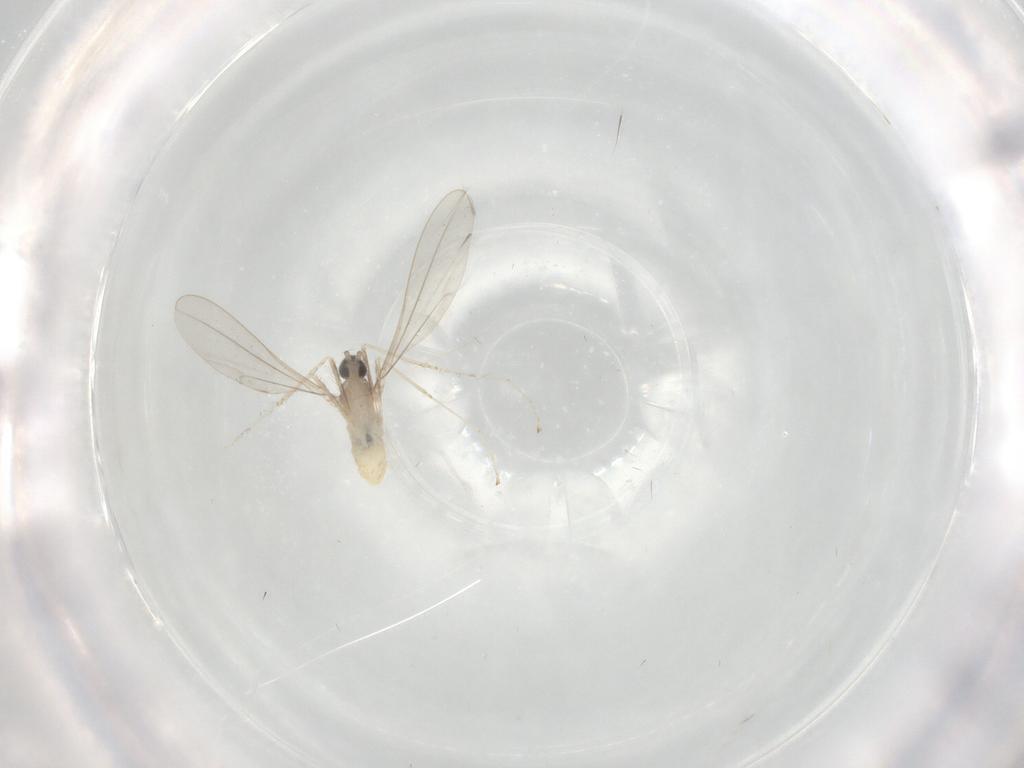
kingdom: Animalia
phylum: Arthropoda
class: Insecta
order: Diptera
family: Cecidomyiidae
